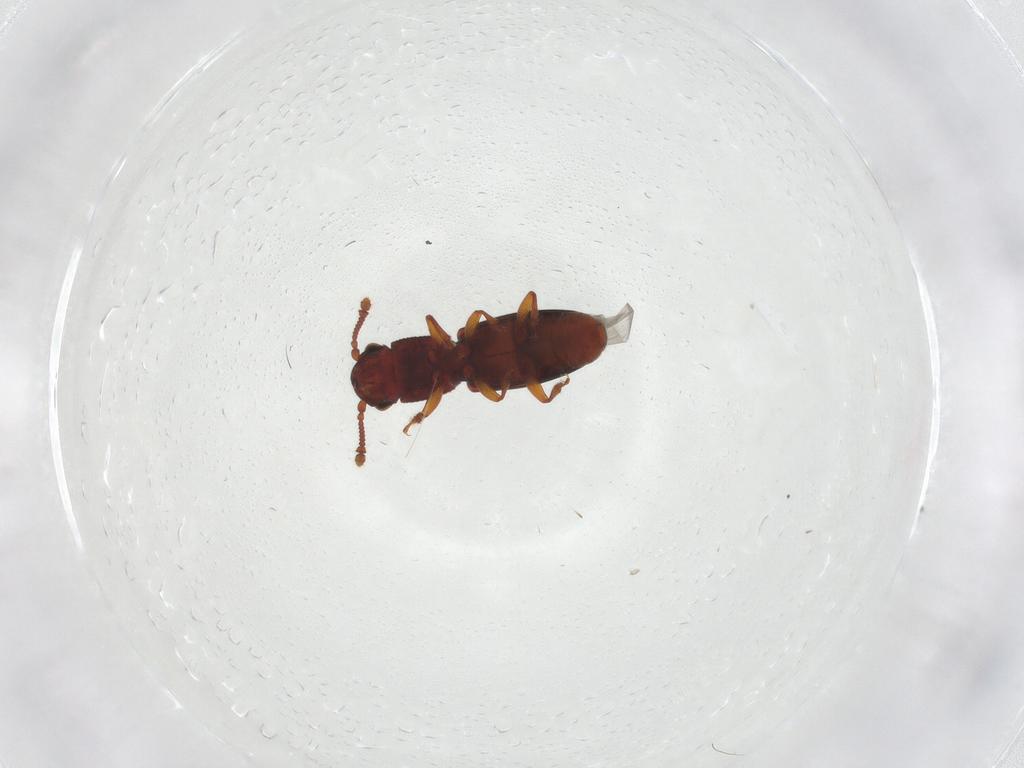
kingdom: Animalia
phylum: Arthropoda
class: Insecta
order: Coleoptera
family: Monotomidae
